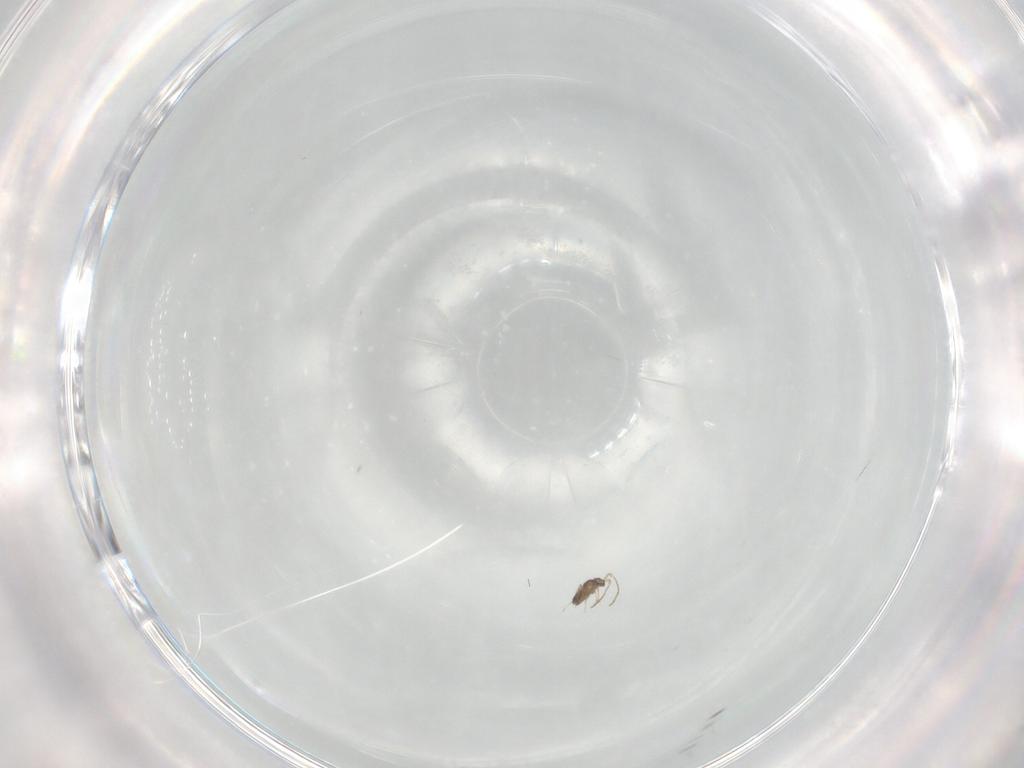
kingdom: Animalia
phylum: Arthropoda
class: Insecta
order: Hymenoptera
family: Mymaridae
